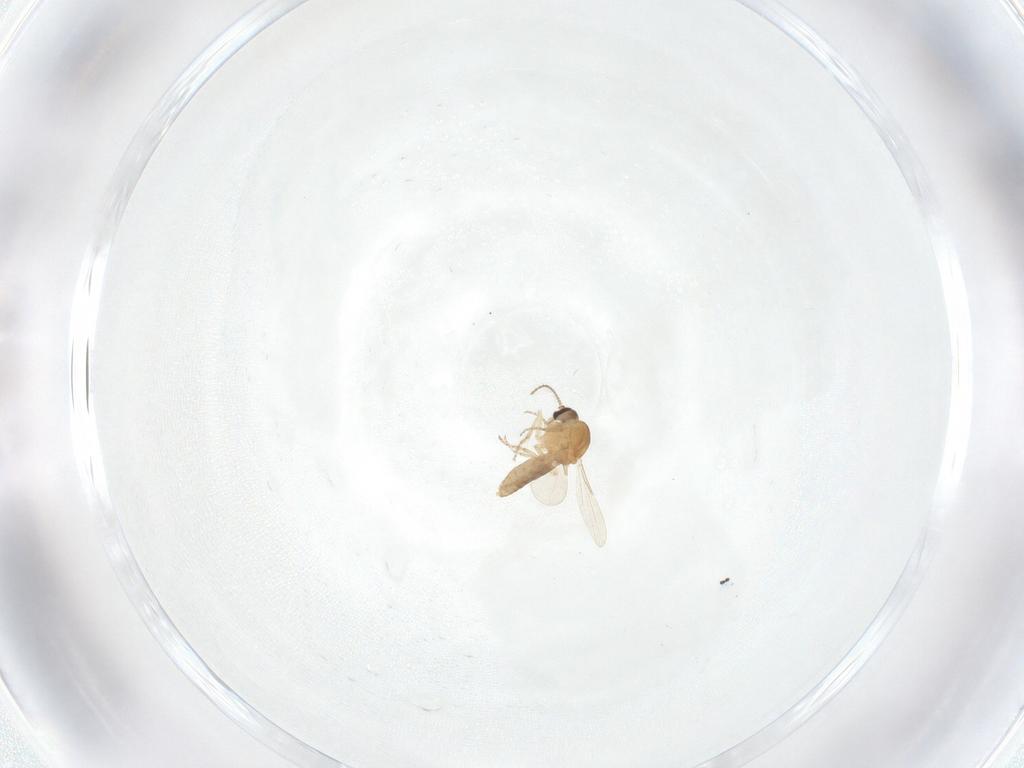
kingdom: Animalia
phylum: Arthropoda
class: Insecta
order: Diptera
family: Ceratopogonidae
